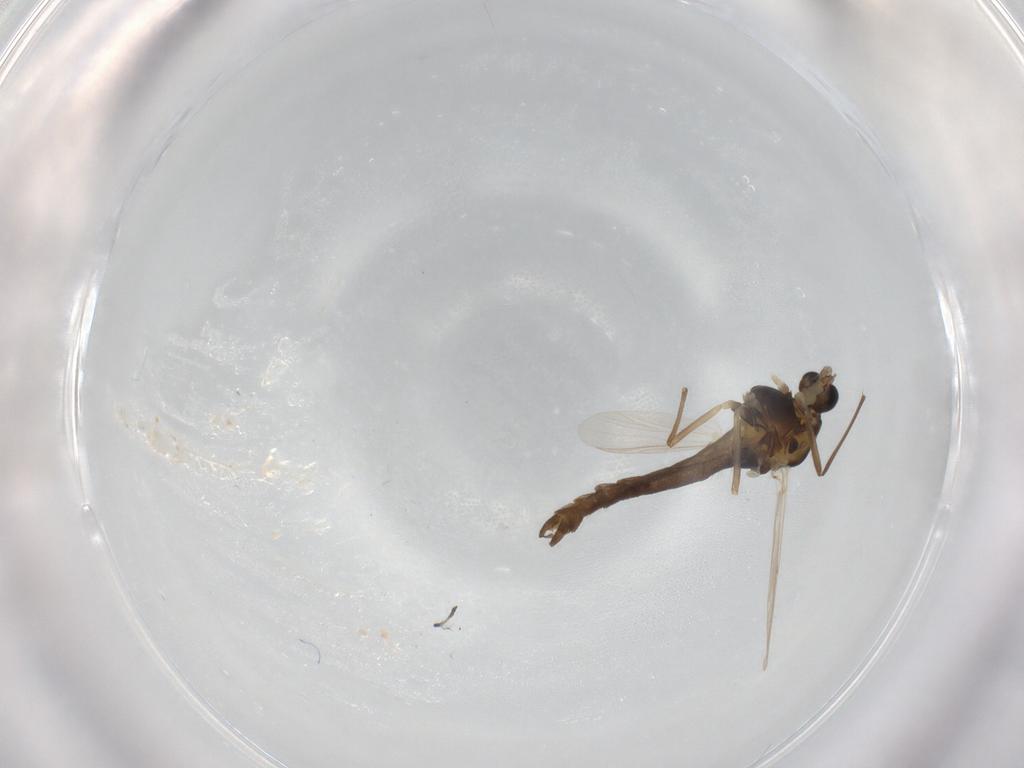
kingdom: Animalia
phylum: Arthropoda
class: Insecta
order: Diptera
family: Chironomidae
